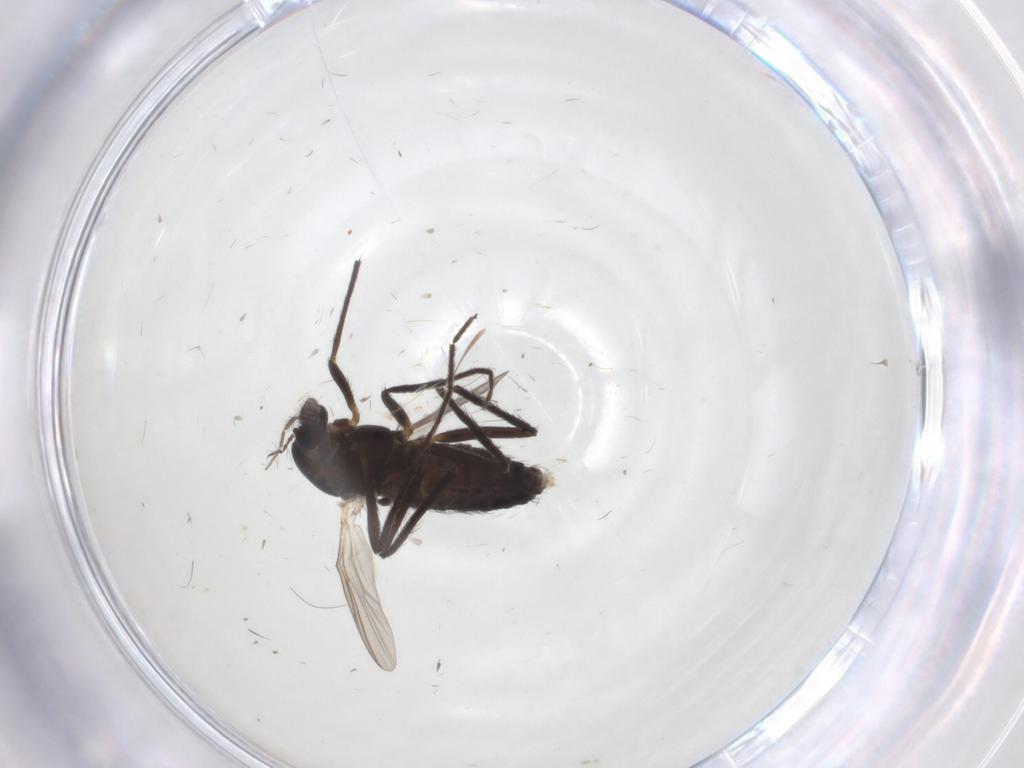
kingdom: Animalia
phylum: Arthropoda
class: Insecta
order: Diptera
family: Chironomidae
